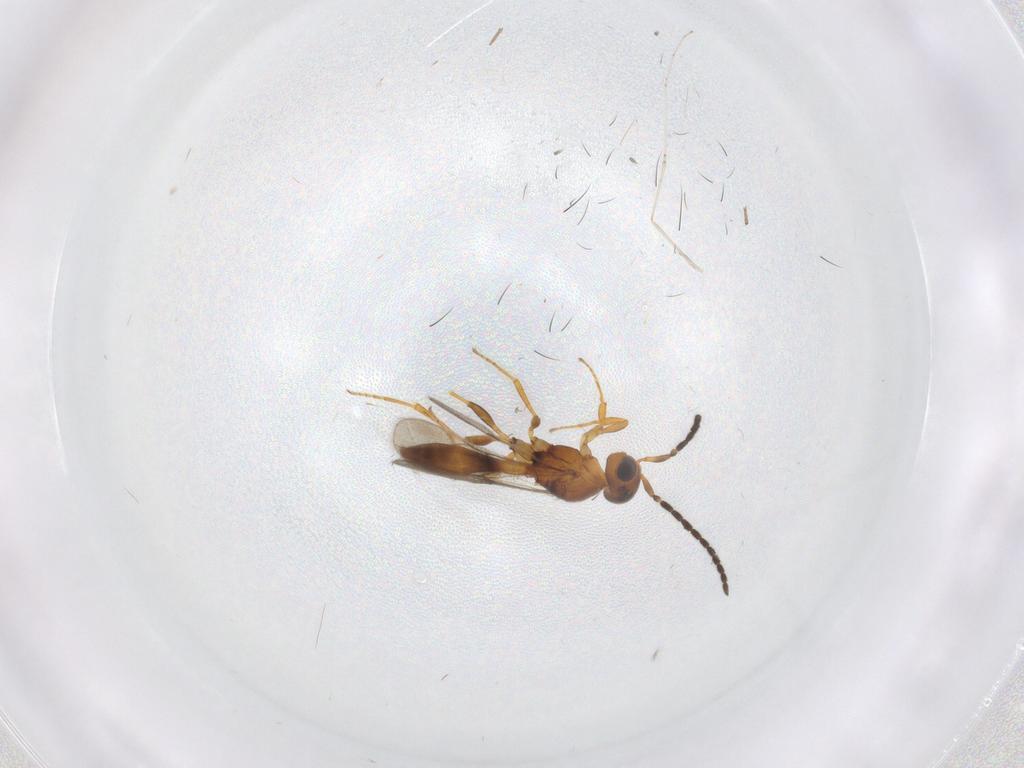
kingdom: Animalia
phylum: Arthropoda
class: Insecta
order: Hymenoptera
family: Scelionidae
